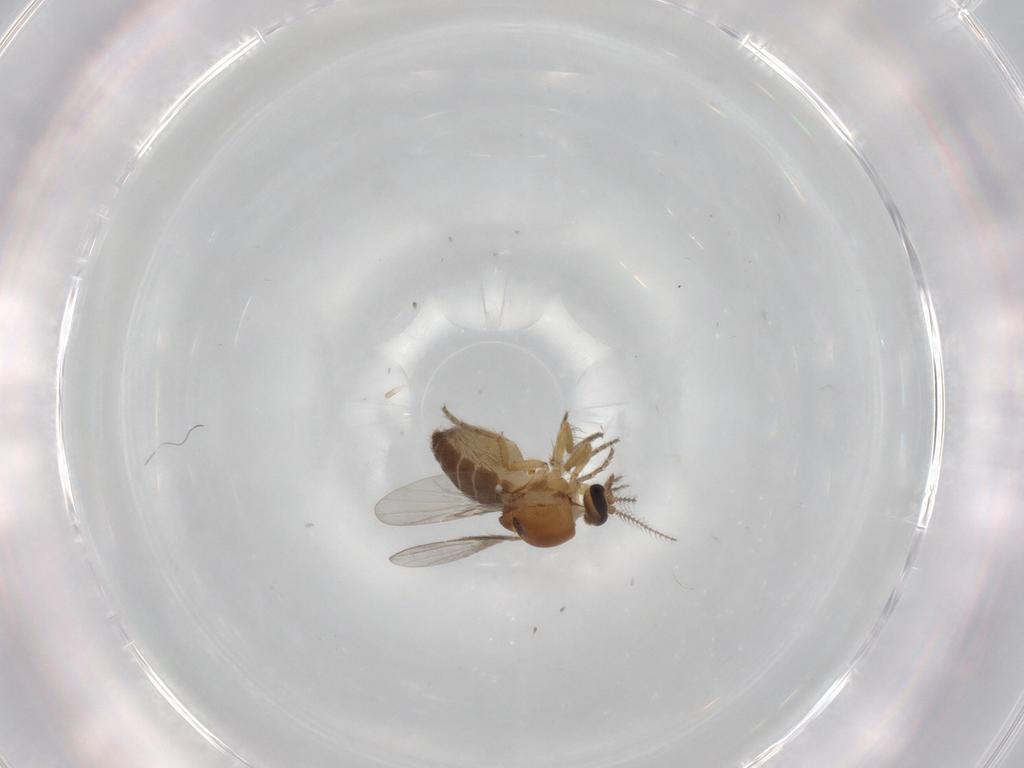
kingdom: Animalia
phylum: Arthropoda
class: Insecta
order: Diptera
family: Ceratopogonidae
